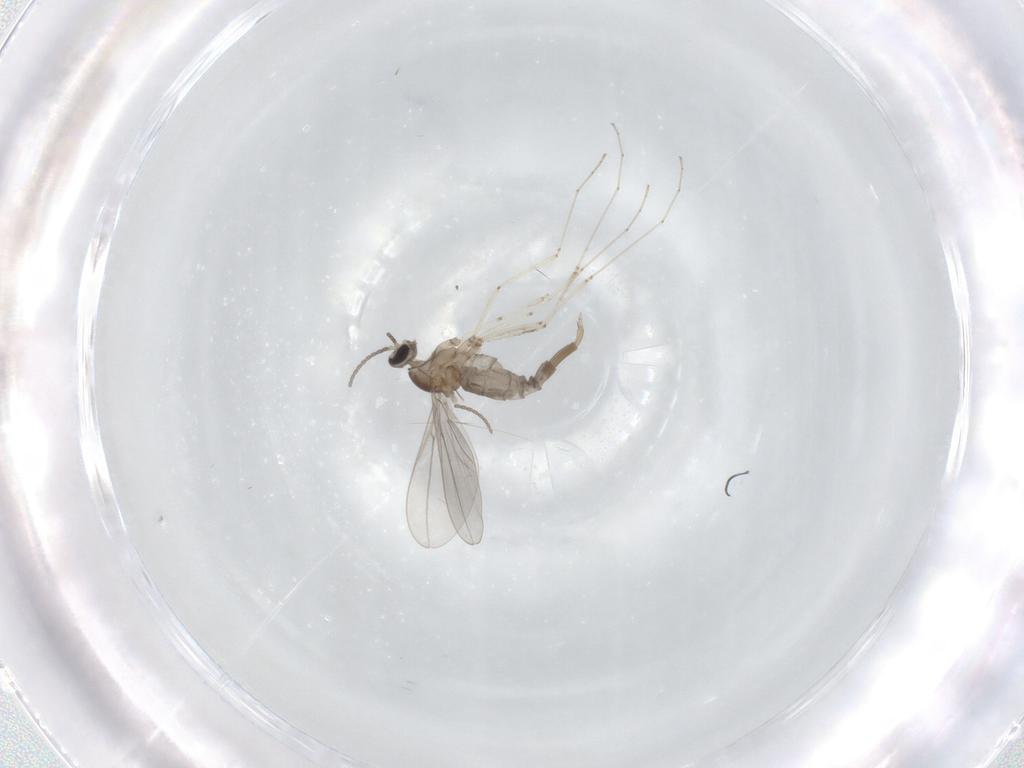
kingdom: Animalia
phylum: Arthropoda
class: Insecta
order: Diptera
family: Cecidomyiidae
